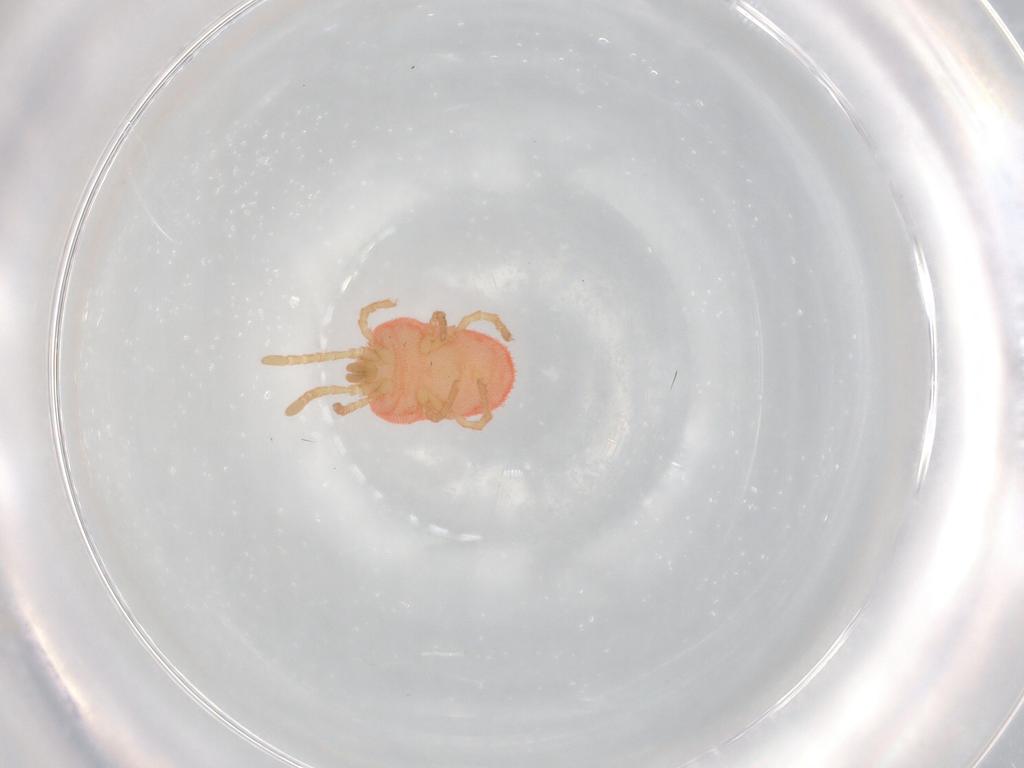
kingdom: Animalia
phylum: Arthropoda
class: Arachnida
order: Trombidiformes
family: Trombidiidae
